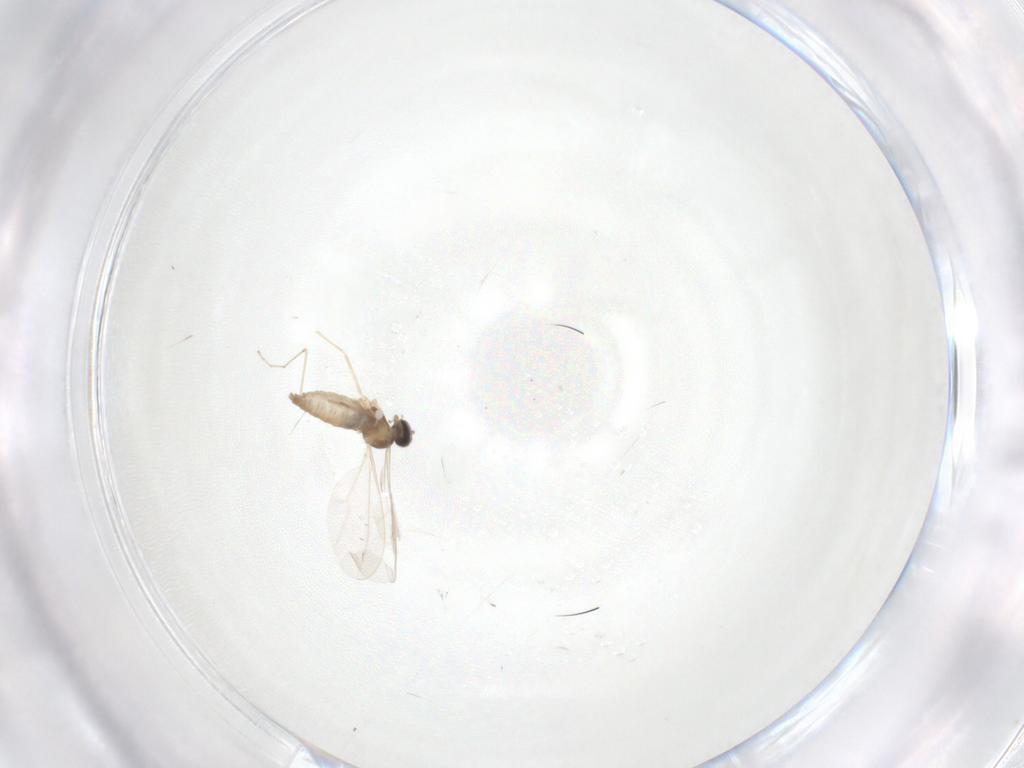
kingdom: Animalia
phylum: Arthropoda
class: Insecta
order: Diptera
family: Cecidomyiidae
